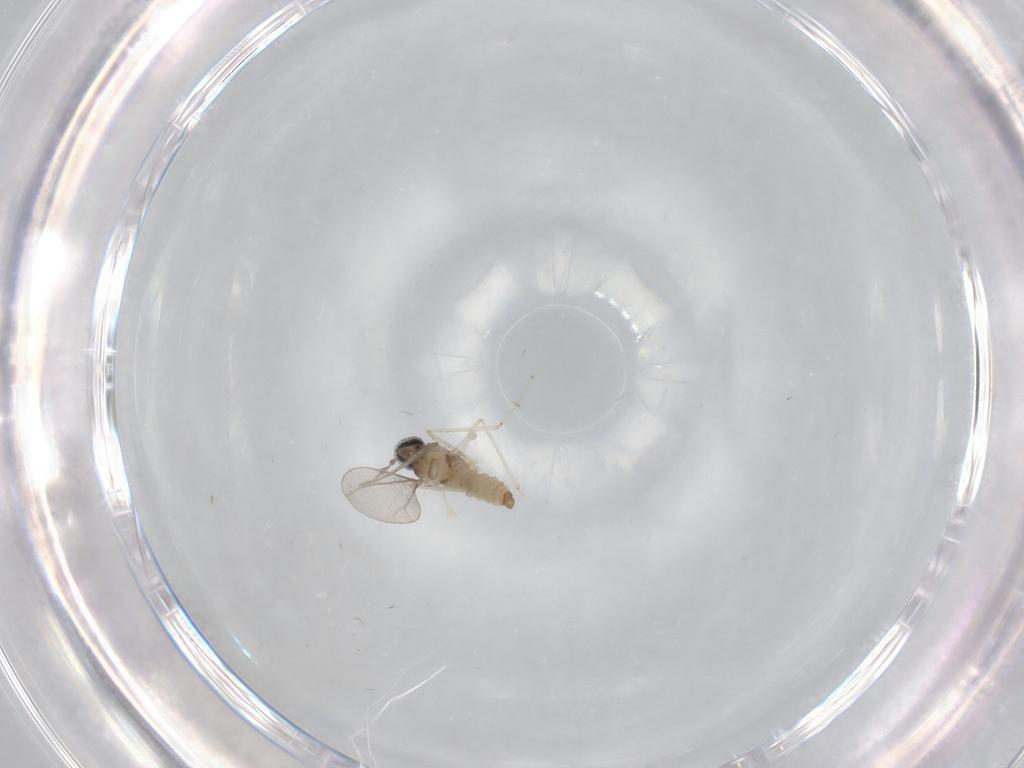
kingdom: Animalia
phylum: Arthropoda
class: Insecta
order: Diptera
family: Cecidomyiidae
